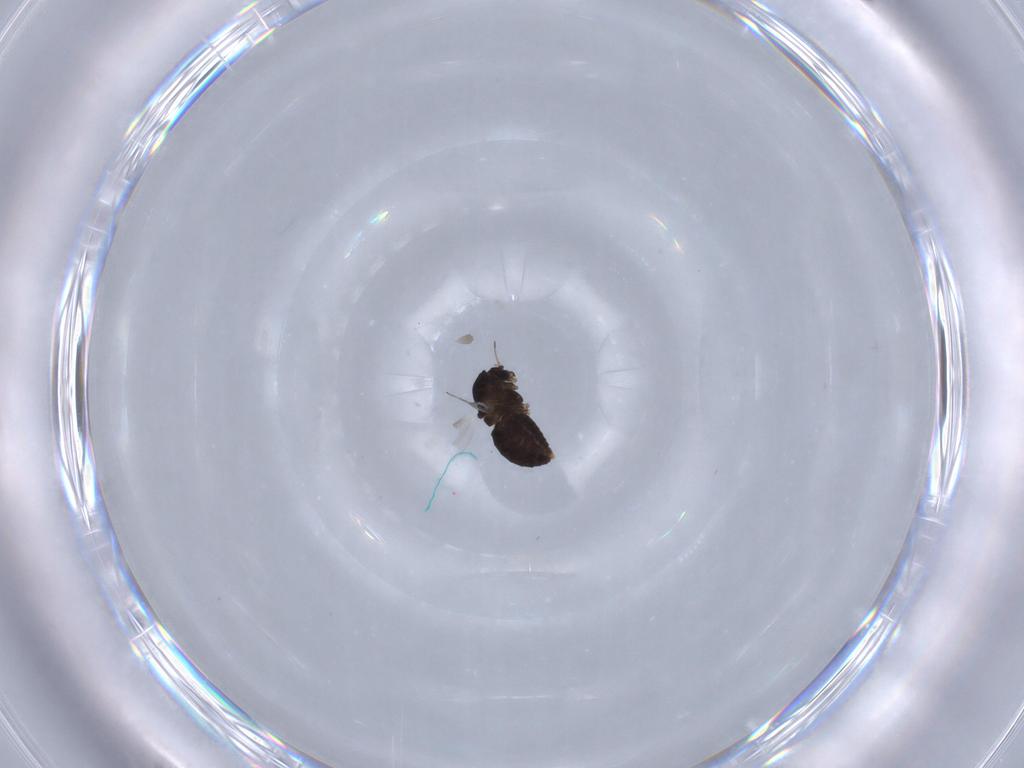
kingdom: Animalia
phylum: Arthropoda
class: Insecta
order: Diptera
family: Chironomidae
